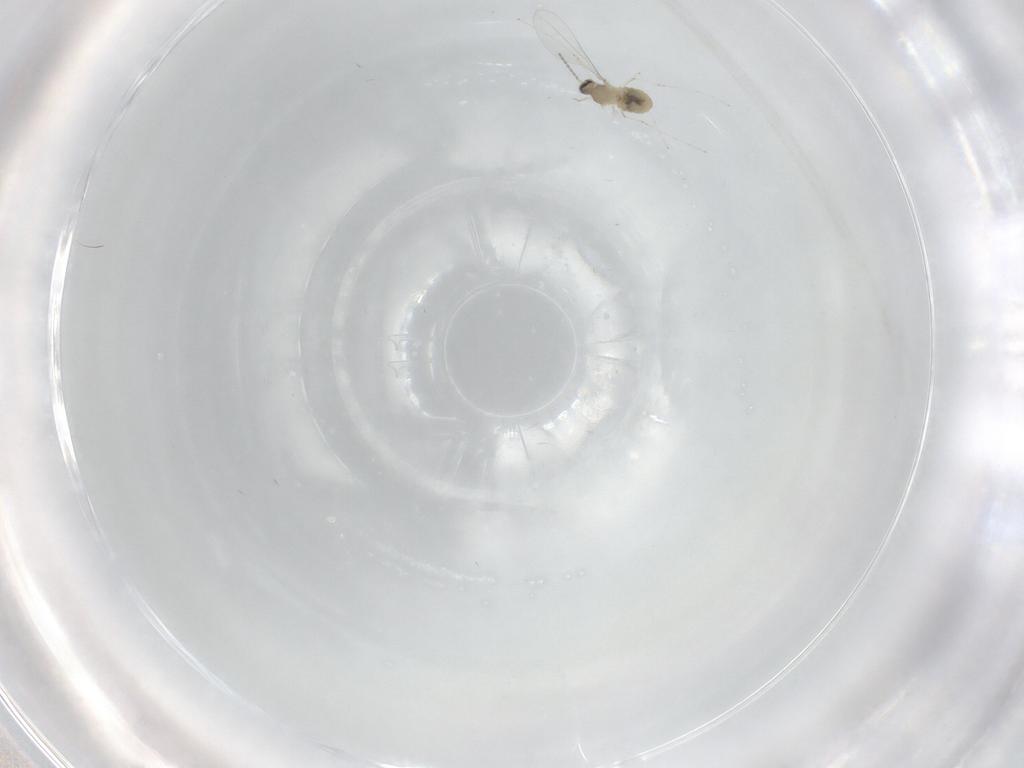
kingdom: Animalia
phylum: Arthropoda
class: Insecta
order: Diptera
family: Cecidomyiidae
